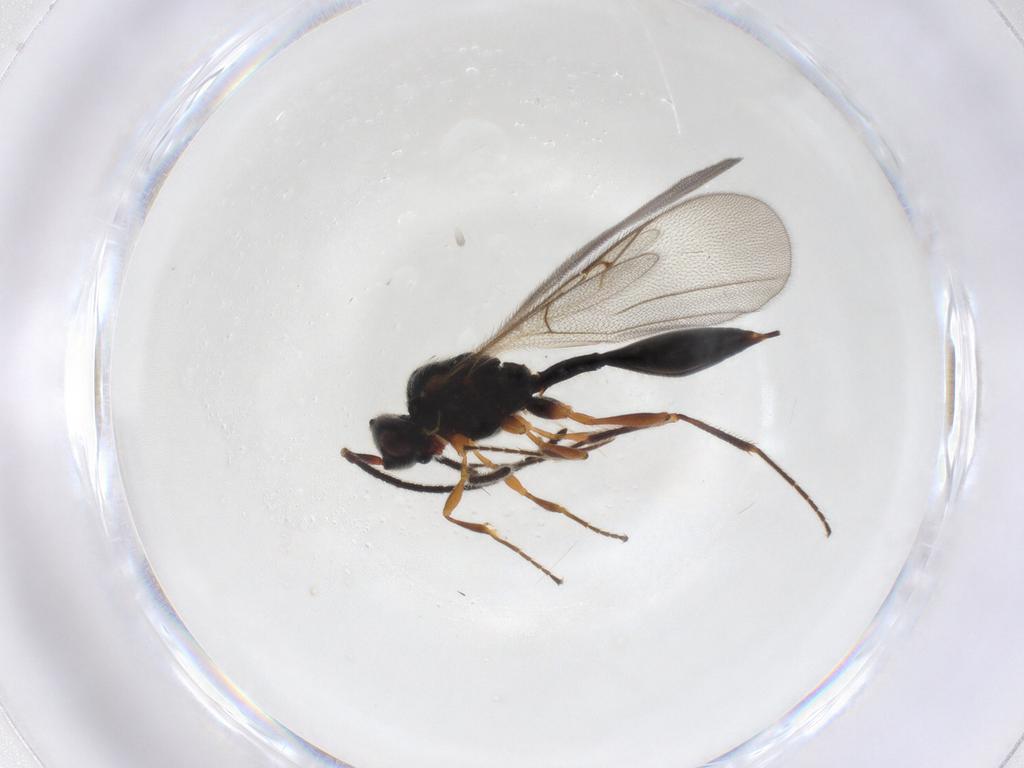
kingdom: Animalia
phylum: Arthropoda
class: Insecta
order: Hymenoptera
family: Diapriidae
